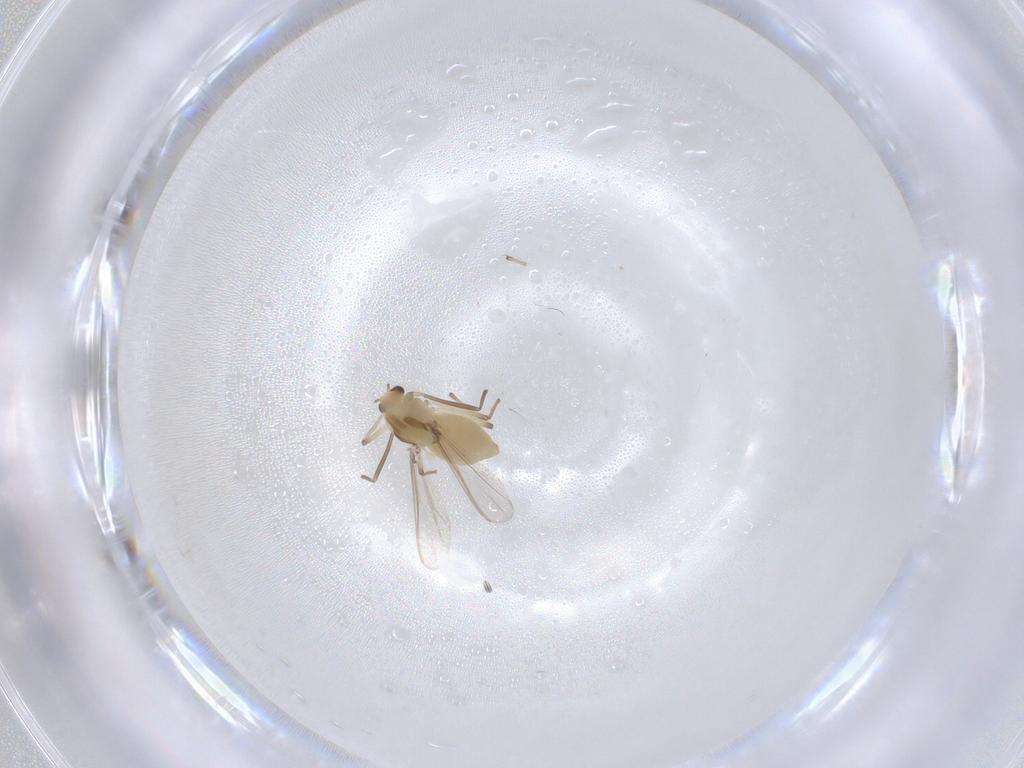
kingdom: Animalia
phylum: Arthropoda
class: Insecta
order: Diptera
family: Chironomidae
